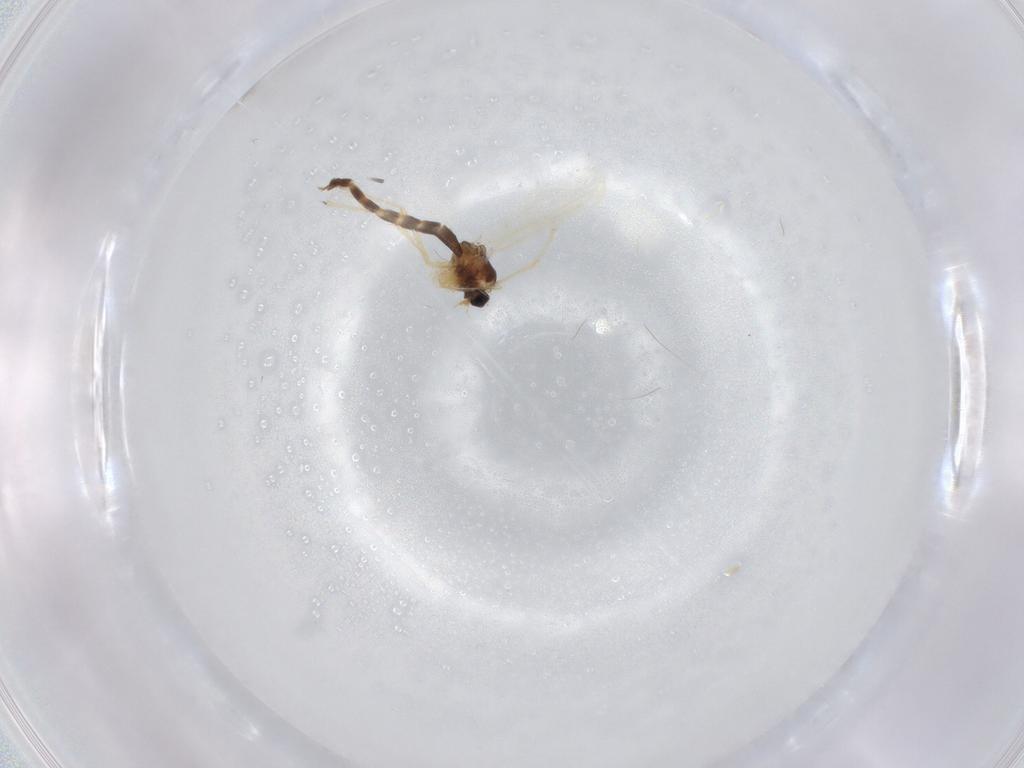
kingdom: Animalia
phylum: Arthropoda
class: Insecta
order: Diptera
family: Chironomidae
